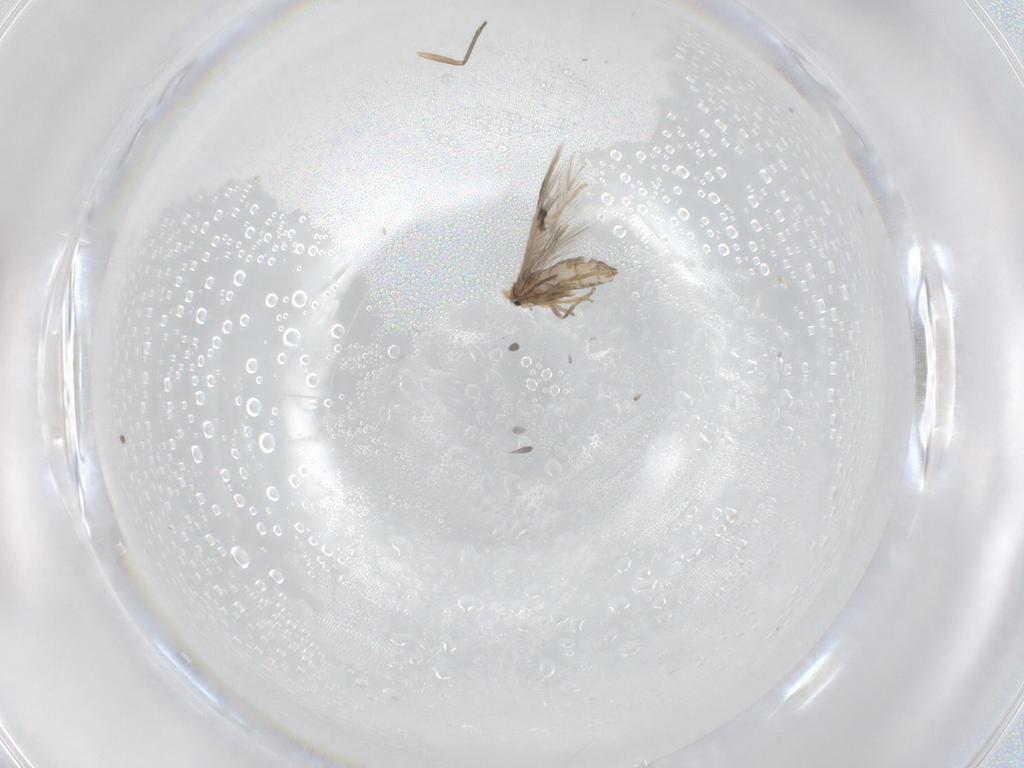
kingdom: Animalia
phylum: Arthropoda
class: Insecta
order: Lepidoptera
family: Nepticulidae
